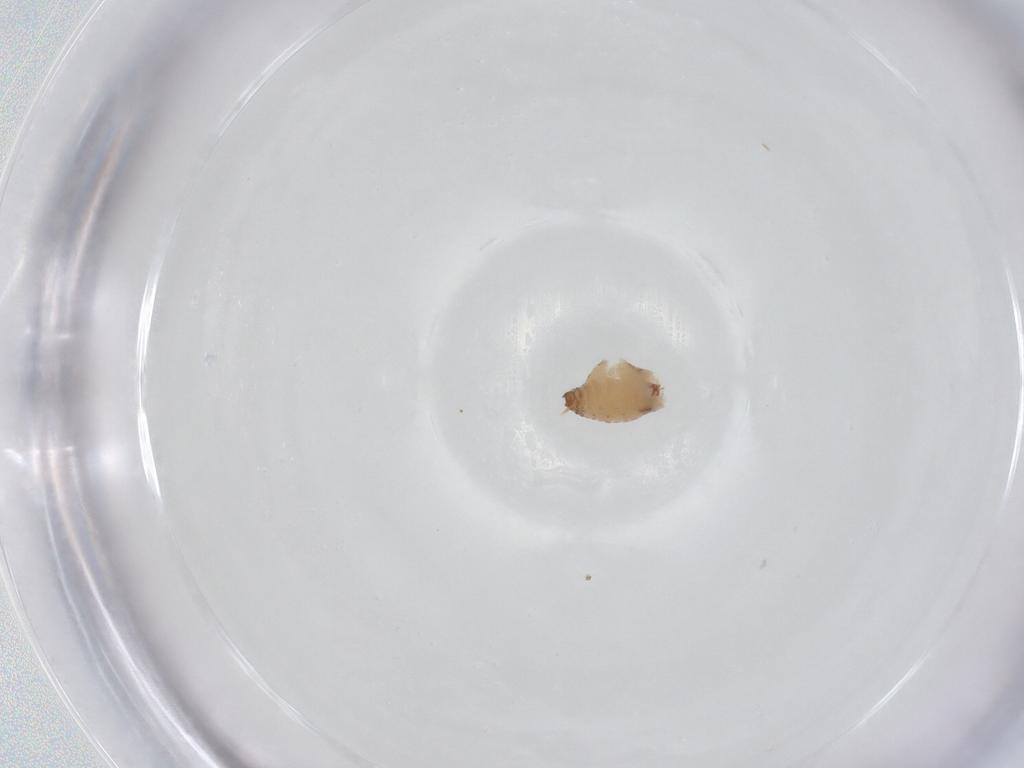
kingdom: Animalia
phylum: Arthropoda
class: Insecta
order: Diptera
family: Psychodidae
